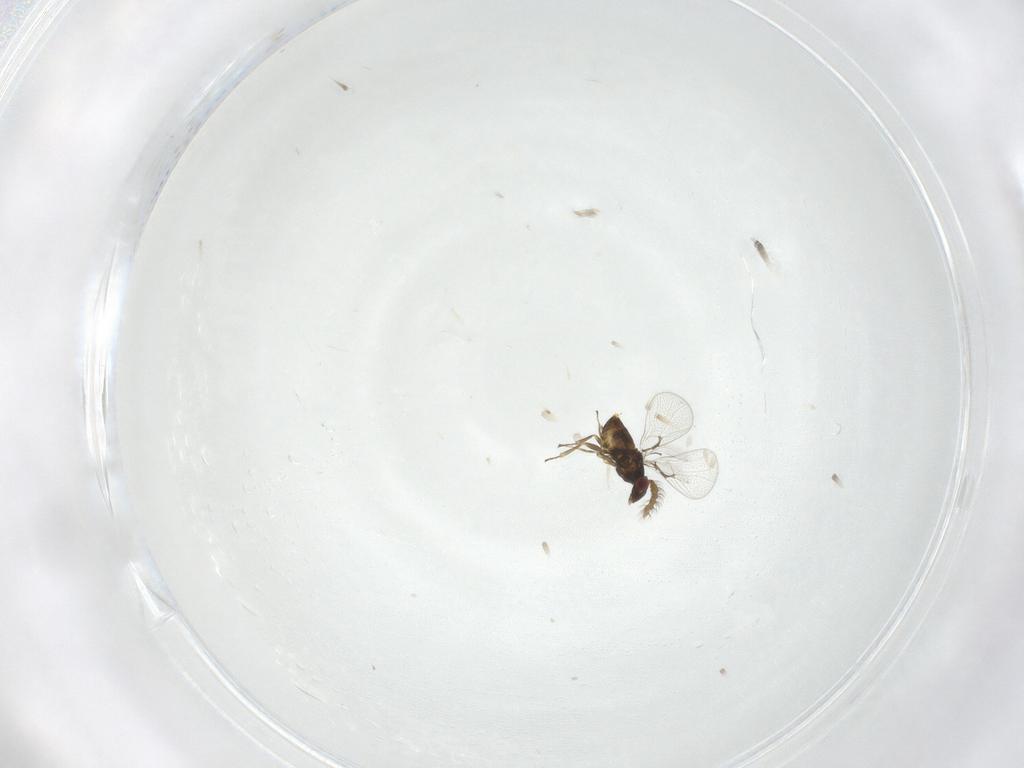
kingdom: Animalia
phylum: Arthropoda
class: Insecta
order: Hymenoptera
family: Trichogrammatidae
